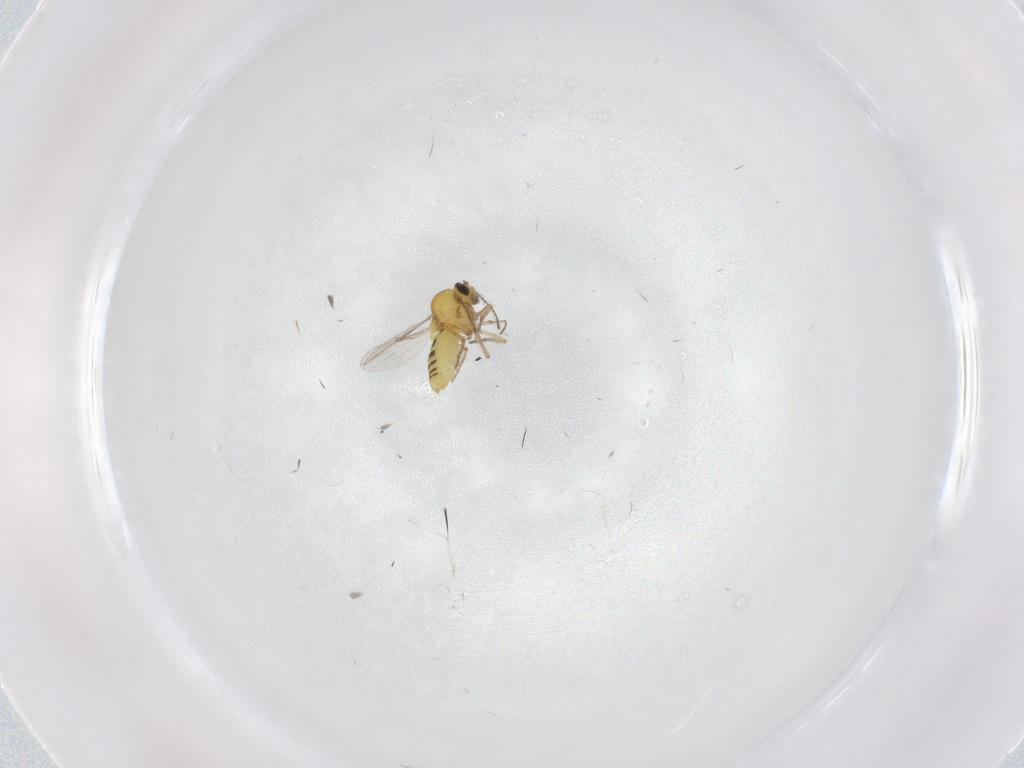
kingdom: Animalia
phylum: Arthropoda
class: Insecta
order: Diptera
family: Ceratopogonidae
